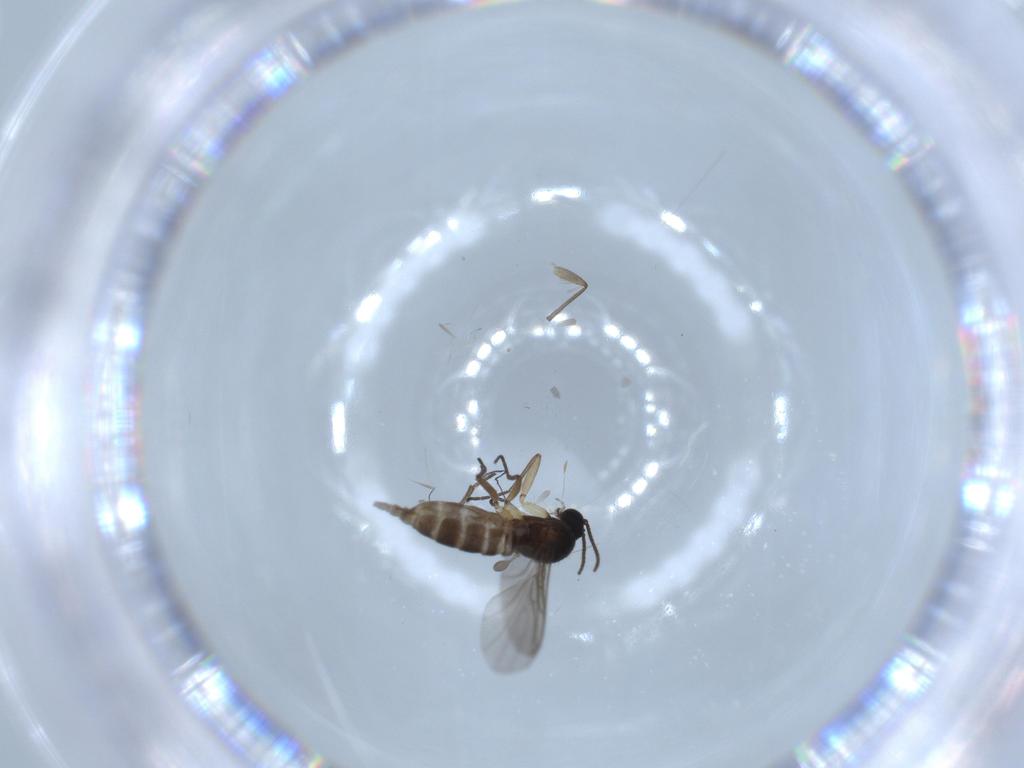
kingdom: Animalia
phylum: Arthropoda
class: Insecta
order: Diptera
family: Sciaridae
